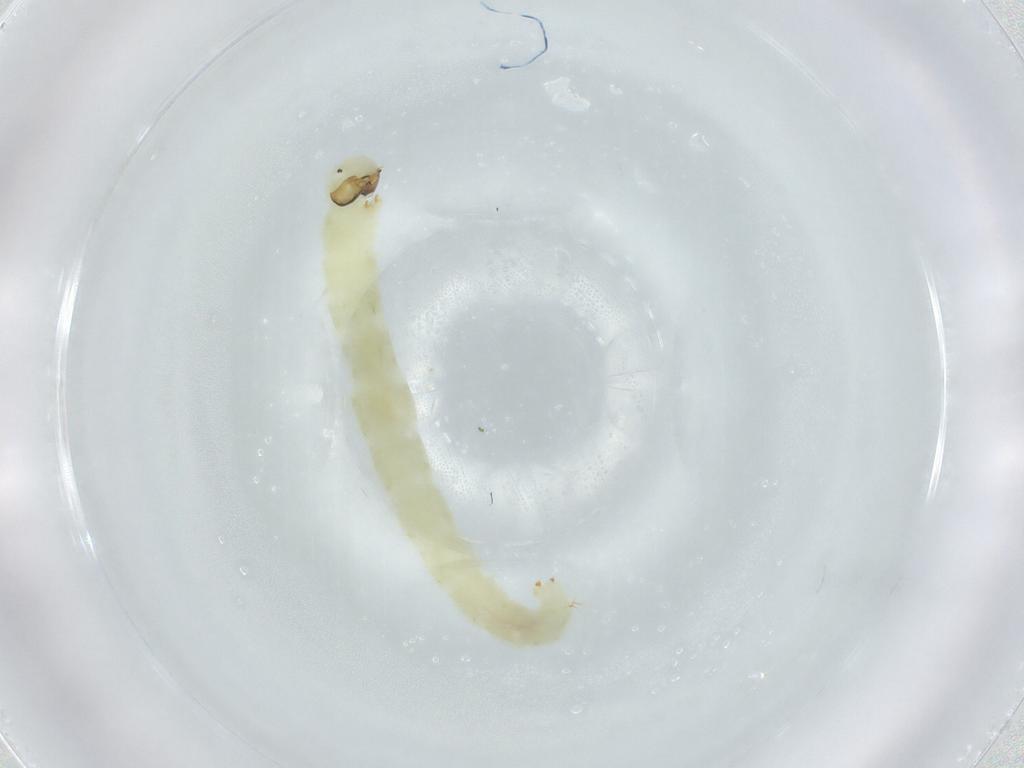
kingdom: Animalia
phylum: Arthropoda
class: Insecta
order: Diptera
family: Chironomidae
